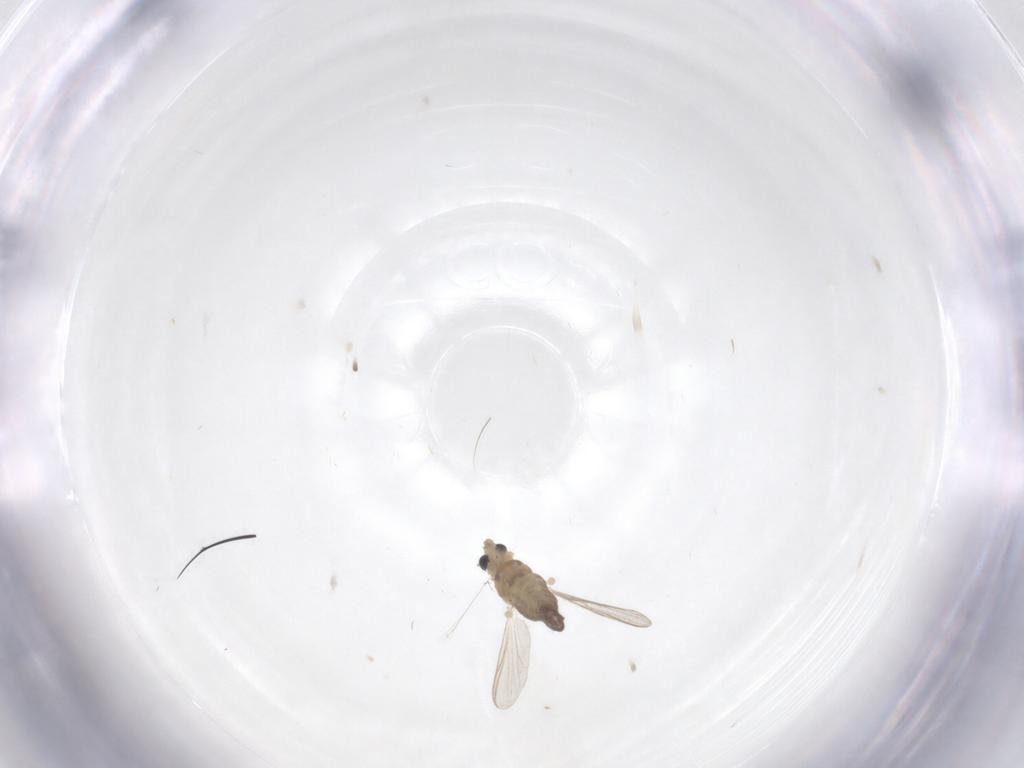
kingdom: Animalia
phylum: Arthropoda
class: Insecta
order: Diptera
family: Chironomidae
